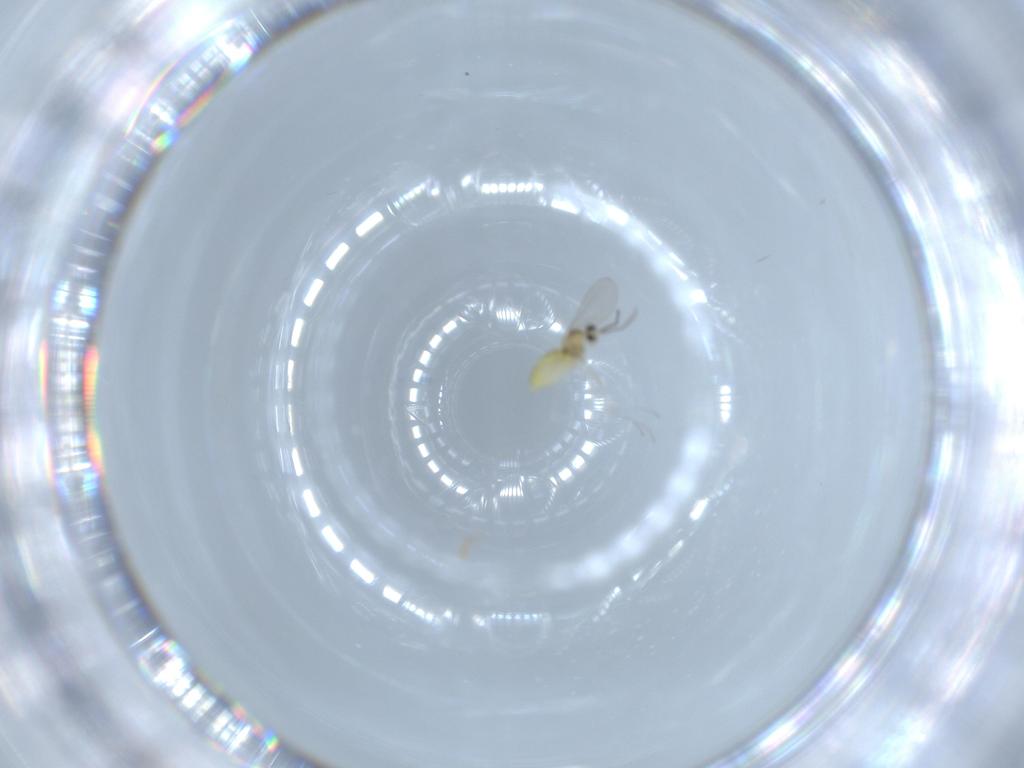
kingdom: Animalia
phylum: Arthropoda
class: Insecta
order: Diptera
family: Cecidomyiidae
